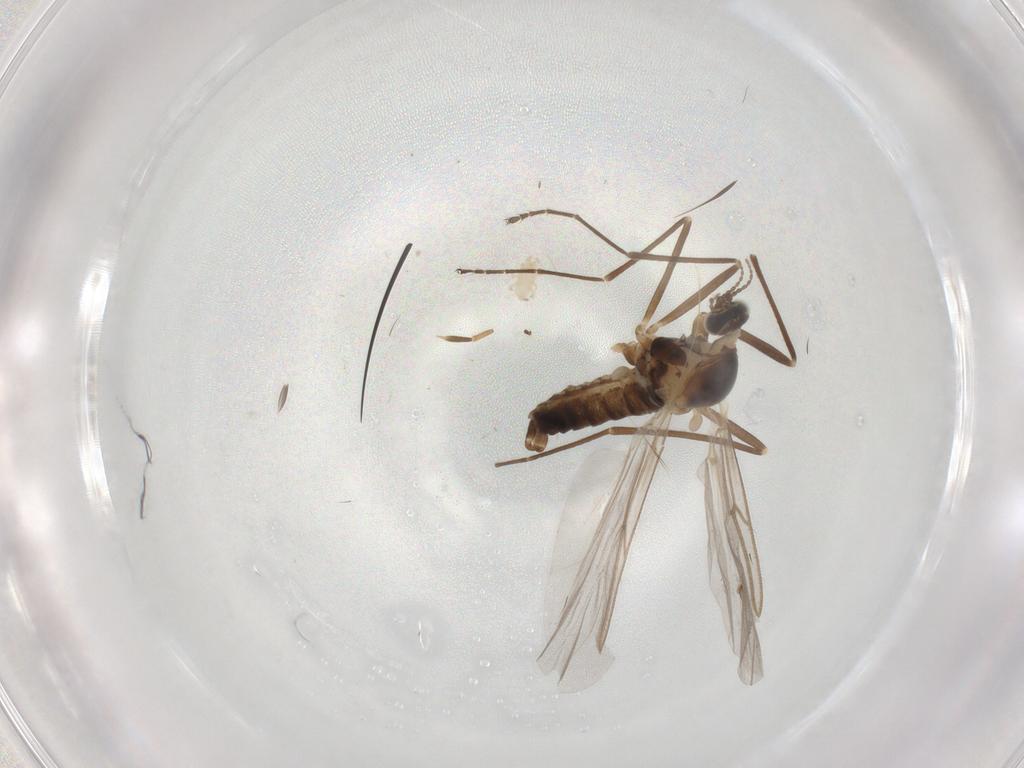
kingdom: Animalia
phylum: Arthropoda
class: Insecta
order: Diptera
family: Cecidomyiidae
